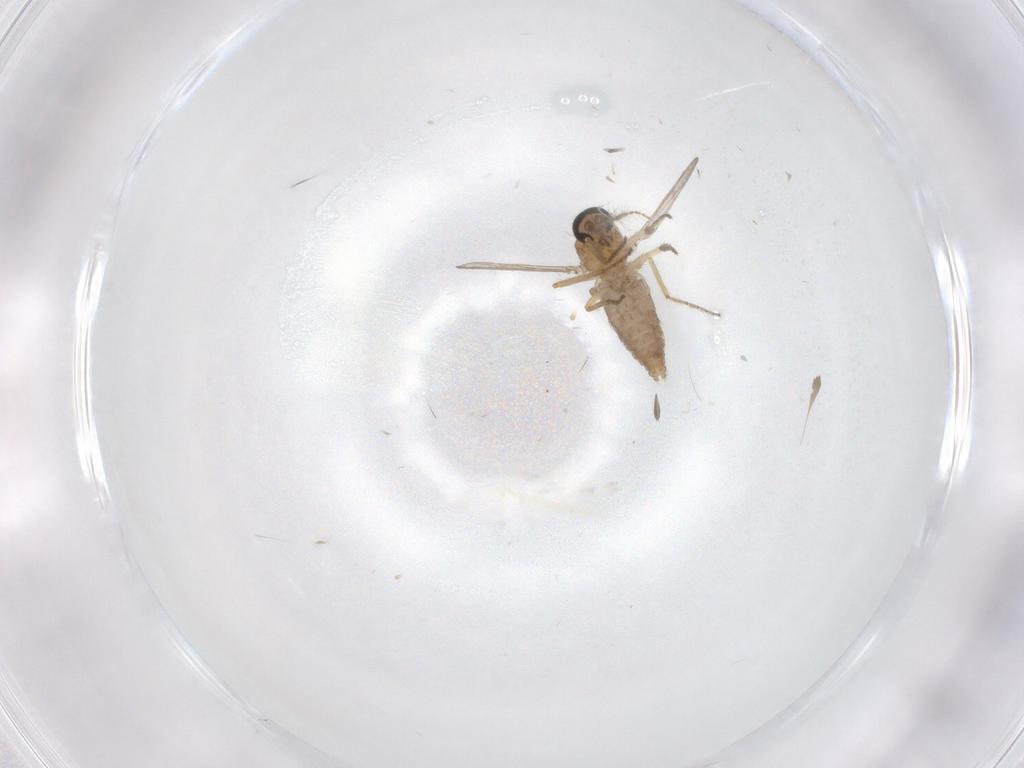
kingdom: Animalia
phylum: Arthropoda
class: Insecta
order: Diptera
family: Ceratopogonidae
